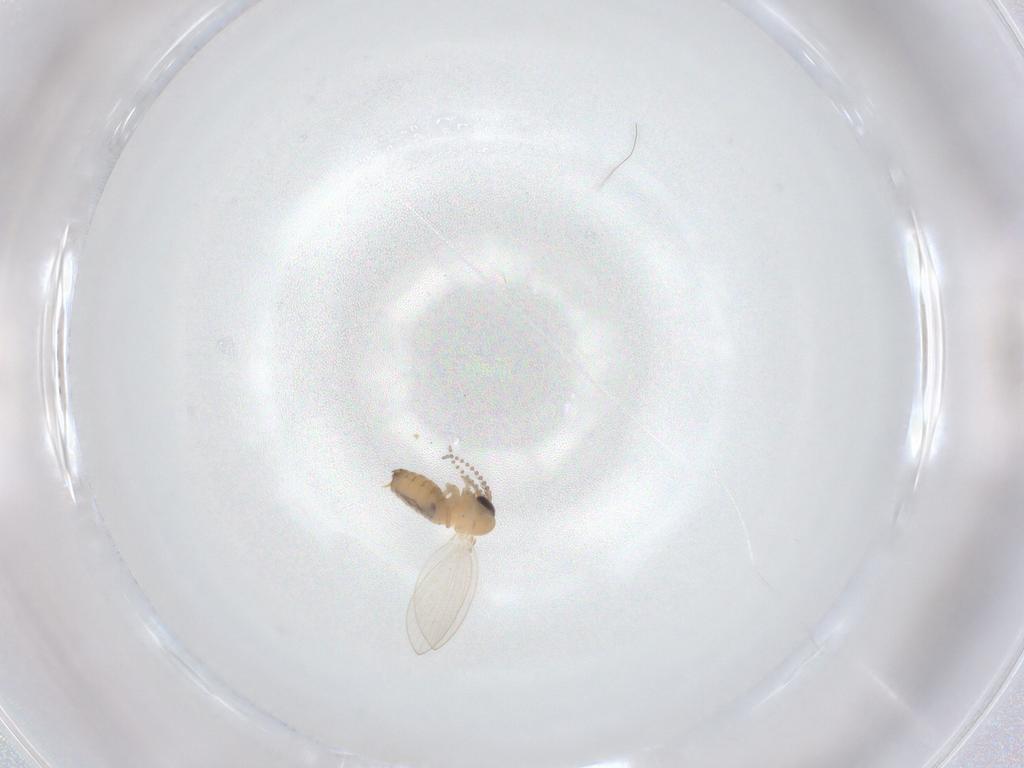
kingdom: Animalia
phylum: Arthropoda
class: Insecta
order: Diptera
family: Psychodidae
